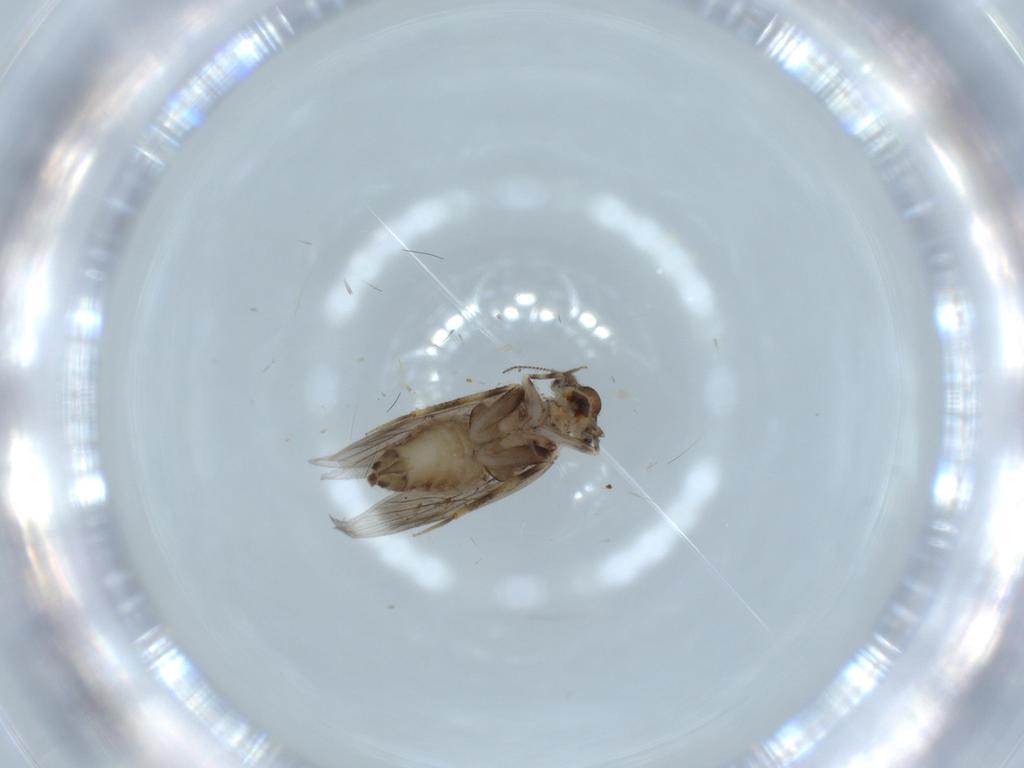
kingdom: Animalia
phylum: Arthropoda
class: Insecta
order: Psocodea
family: Lepidopsocidae
